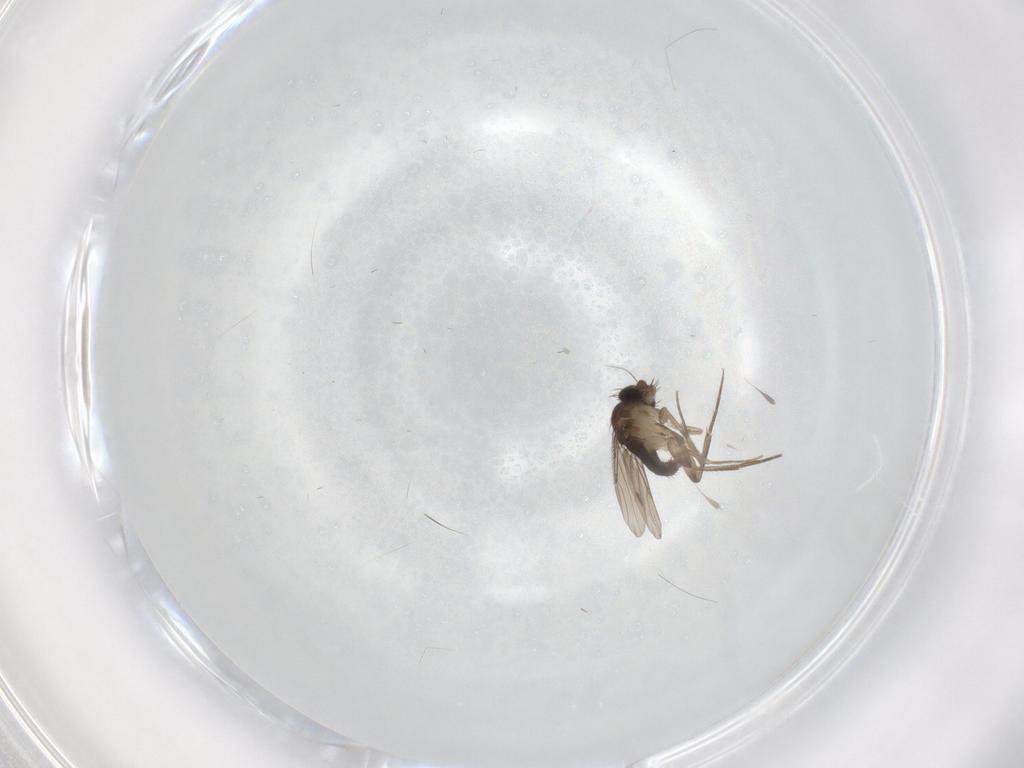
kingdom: Animalia
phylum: Arthropoda
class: Insecta
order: Diptera
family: Phoridae
